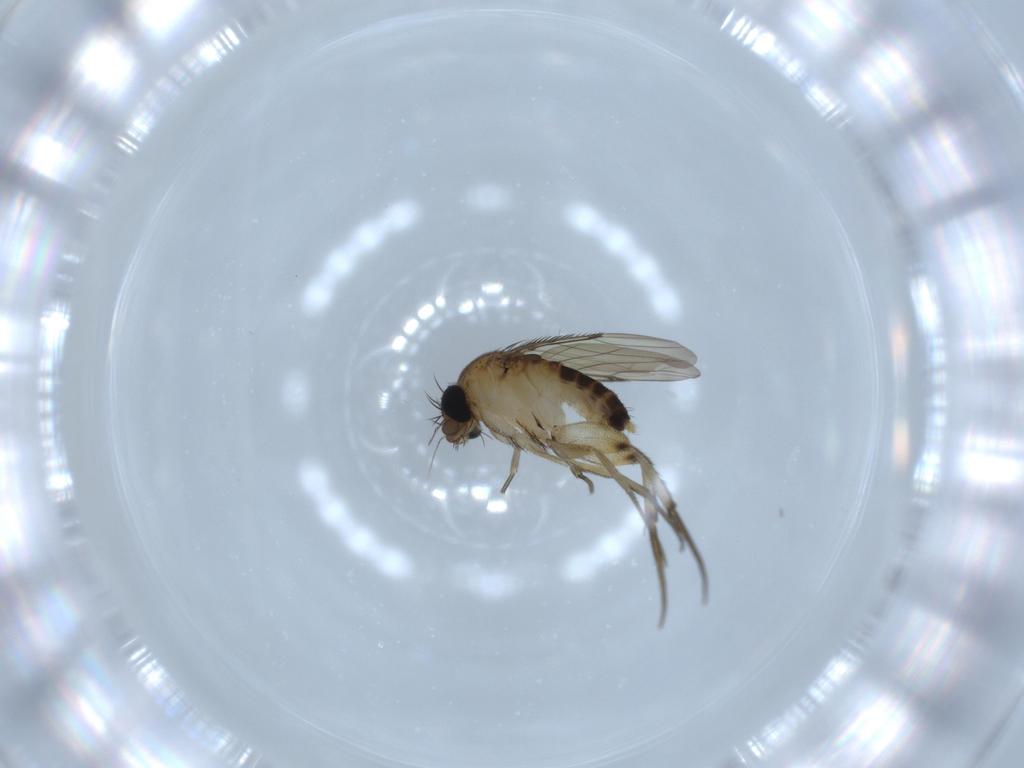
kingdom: Animalia
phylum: Arthropoda
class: Insecta
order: Diptera
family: Phoridae
